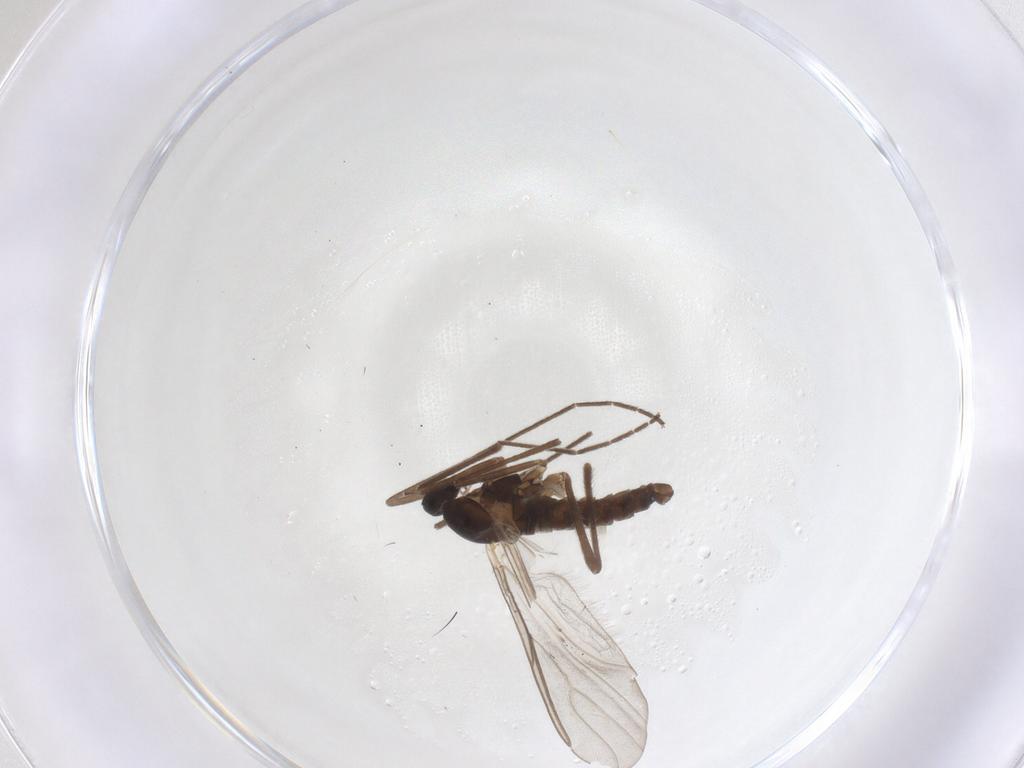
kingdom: Animalia
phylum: Arthropoda
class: Insecta
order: Diptera
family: Cecidomyiidae
